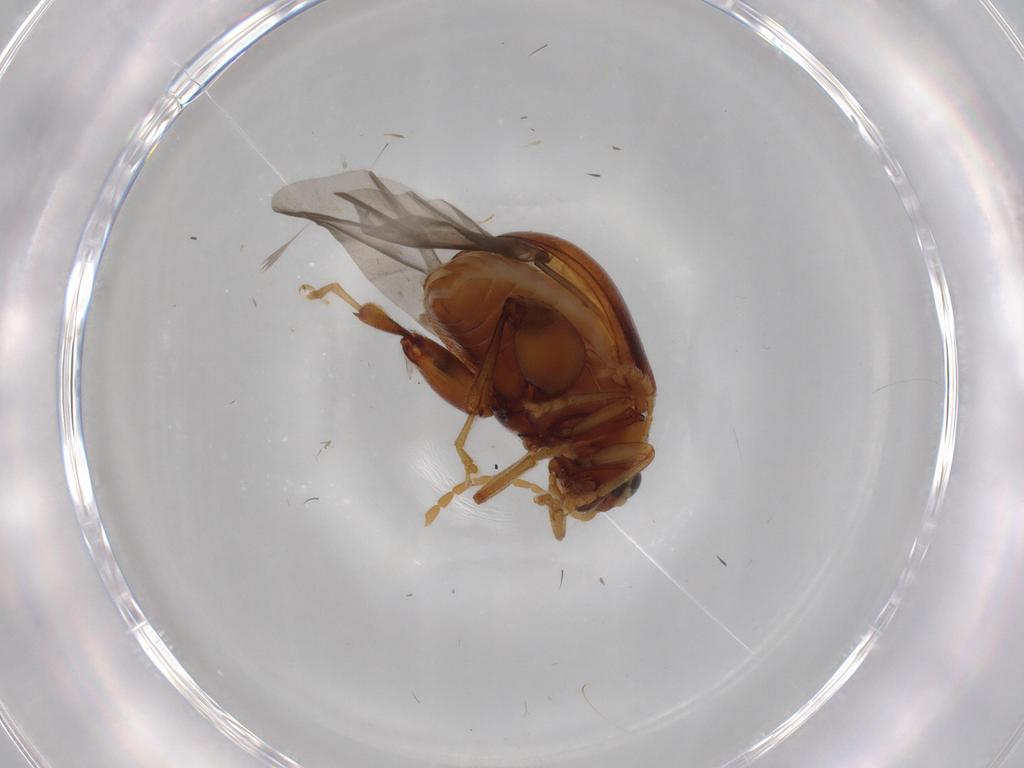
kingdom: Animalia
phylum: Arthropoda
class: Insecta
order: Coleoptera
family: Chrysomelidae
